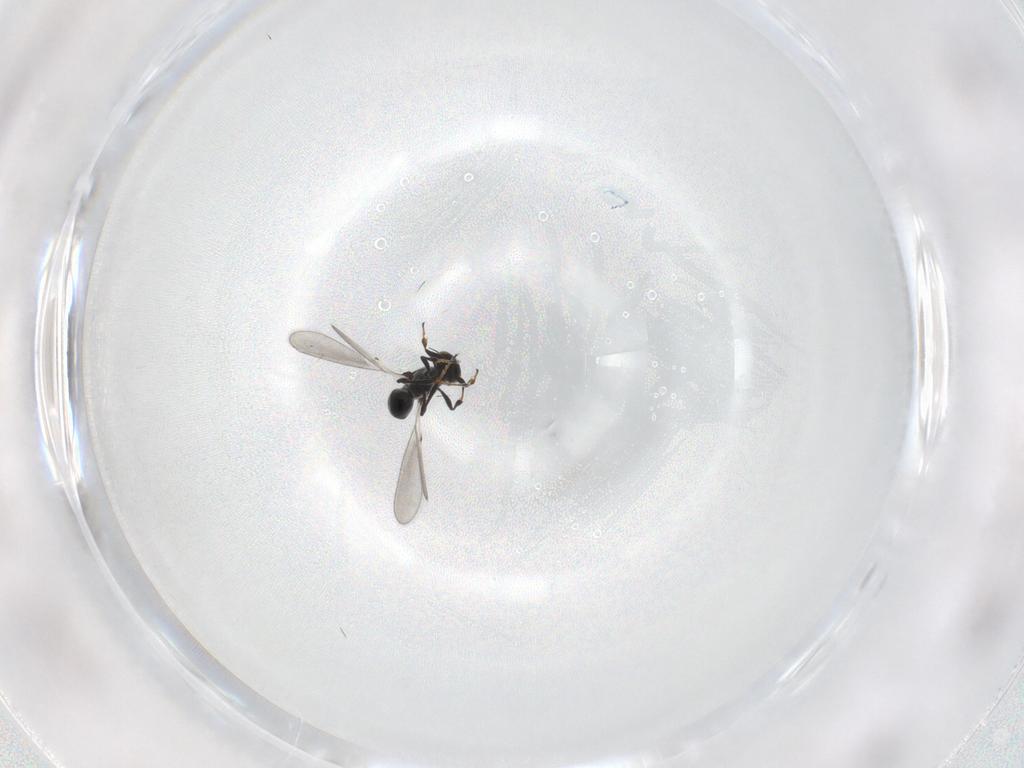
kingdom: Animalia
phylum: Arthropoda
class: Insecta
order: Hymenoptera
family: Platygastridae
